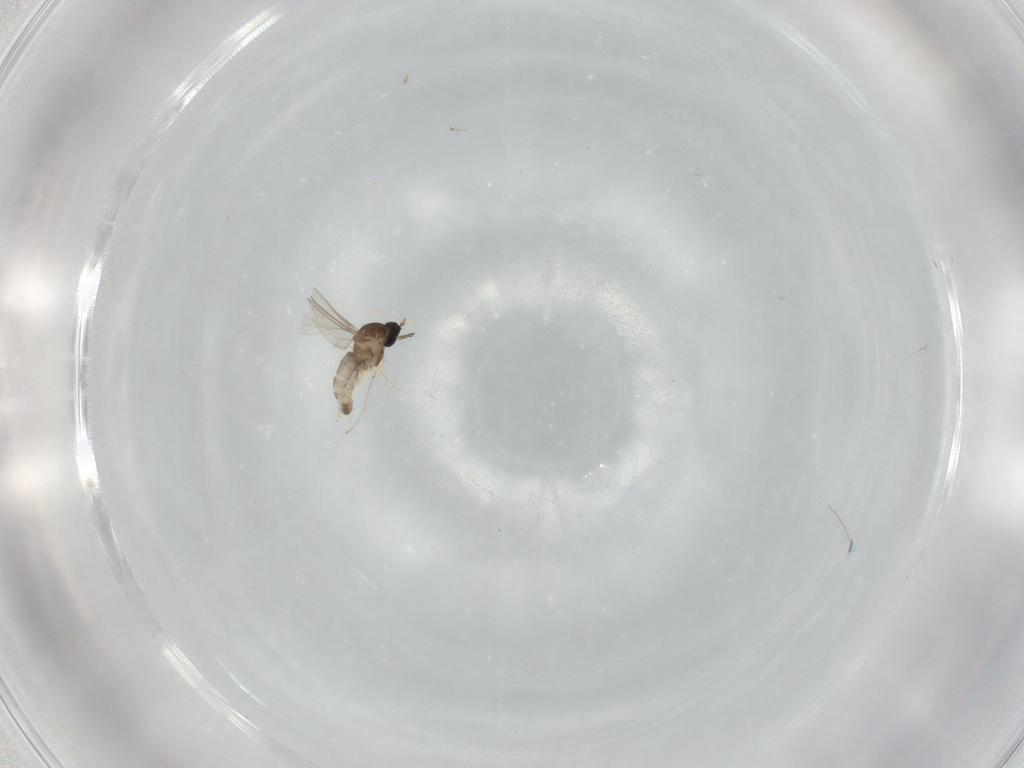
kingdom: Animalia
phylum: Arthropoda
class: Insecta
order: Diptera
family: Cecidomyiidae
